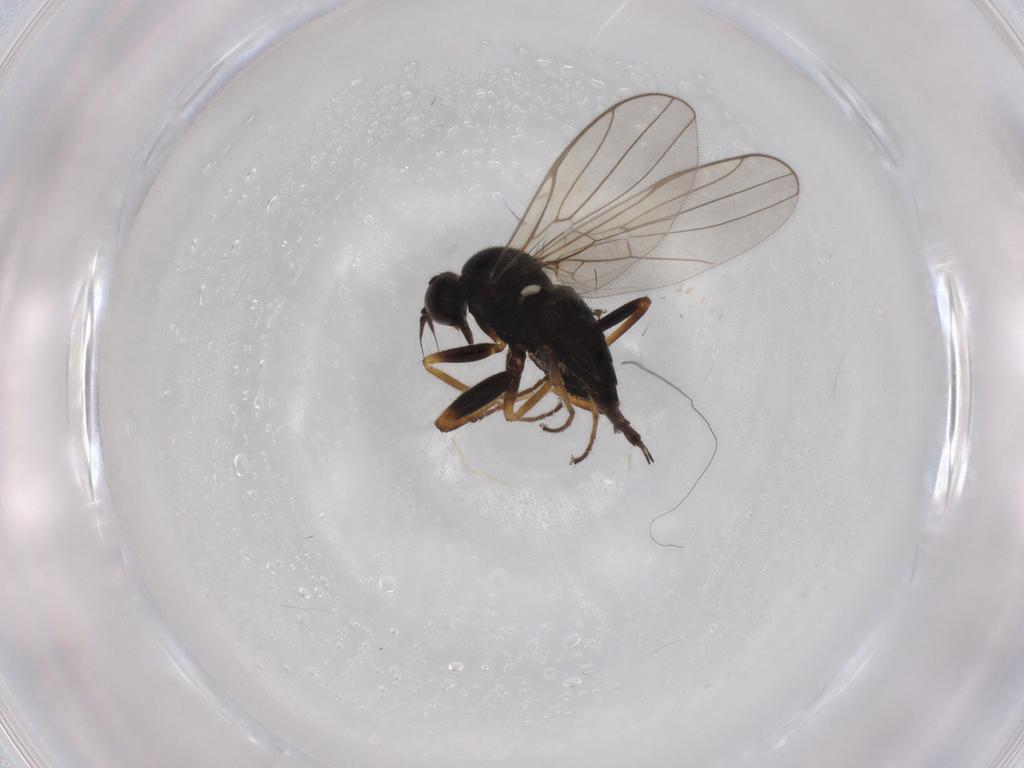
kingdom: Animalia
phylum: Arthropoda
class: Insecta
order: Diptera
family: Hybotidae
